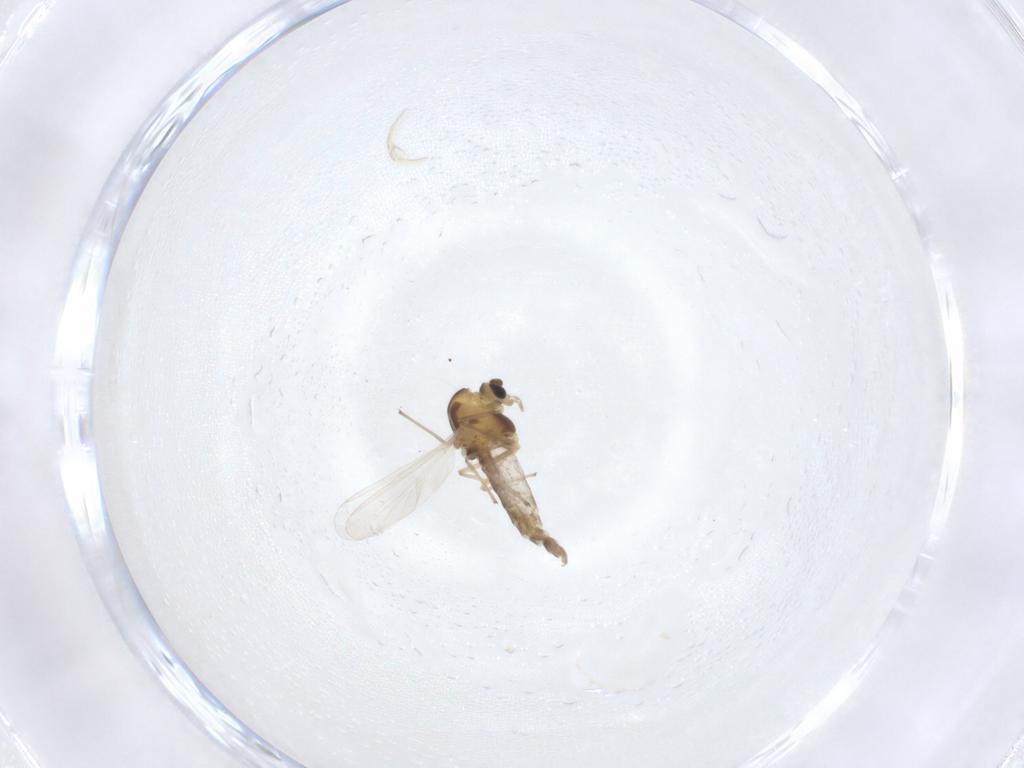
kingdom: Animalia
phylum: Arthropoda
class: Insecta
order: Diptera
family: Chironomidae
